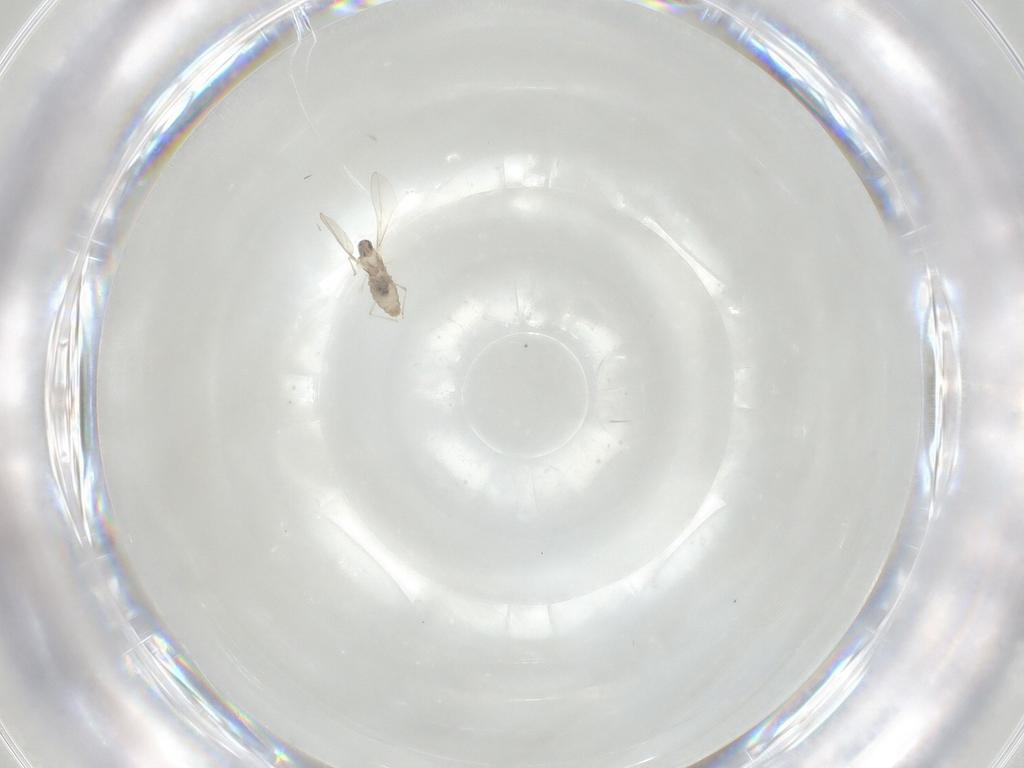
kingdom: Animalia
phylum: Arthropoda
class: Insecta
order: Diptera
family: Cecidomyiidae
